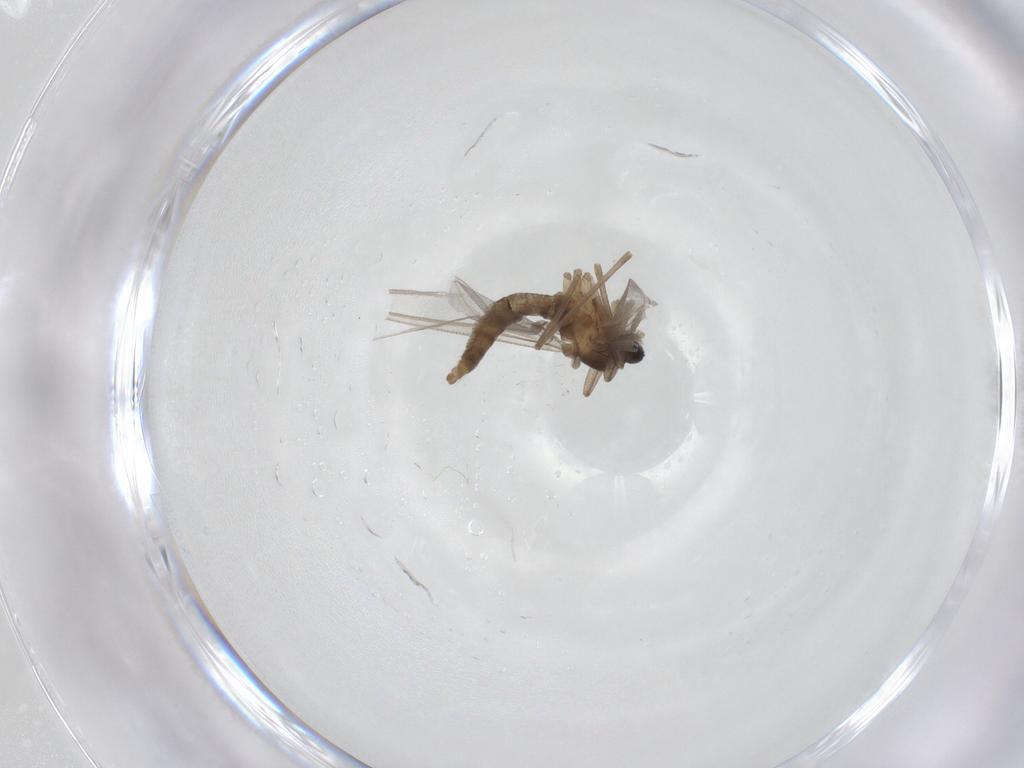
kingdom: Animalia
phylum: Arthropoda
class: Insecta
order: Diptera
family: Cecidomyiidae
